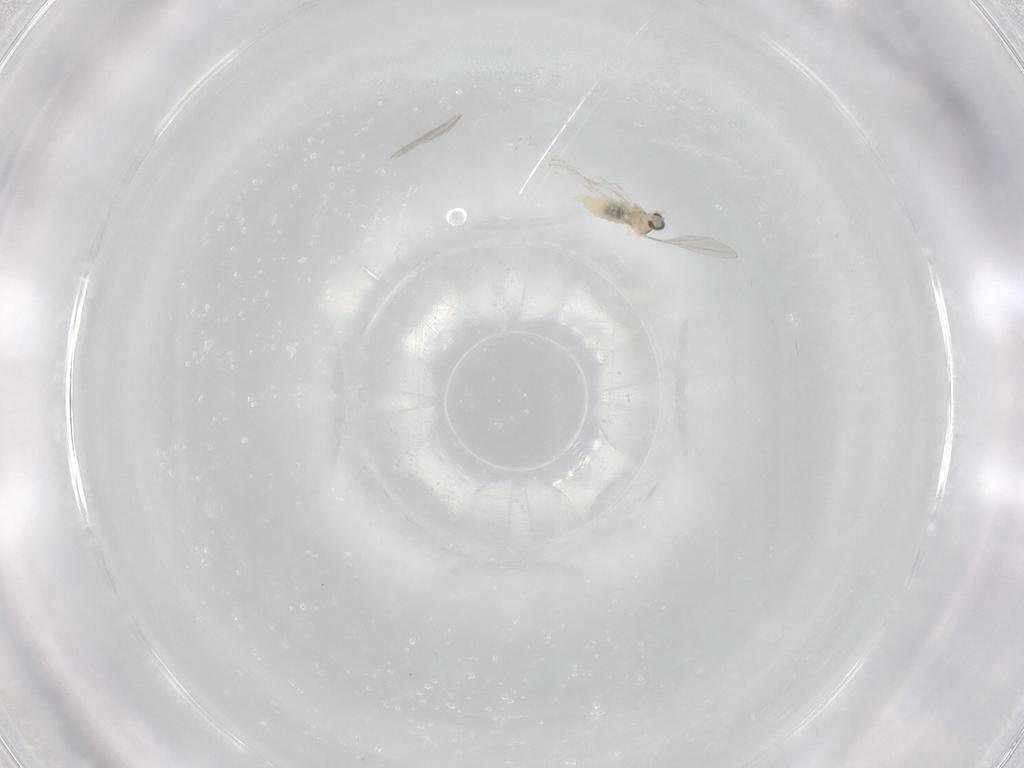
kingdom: Animalia
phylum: Arthropoda
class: Insecta
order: Diptera
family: Cecidomyiidae
